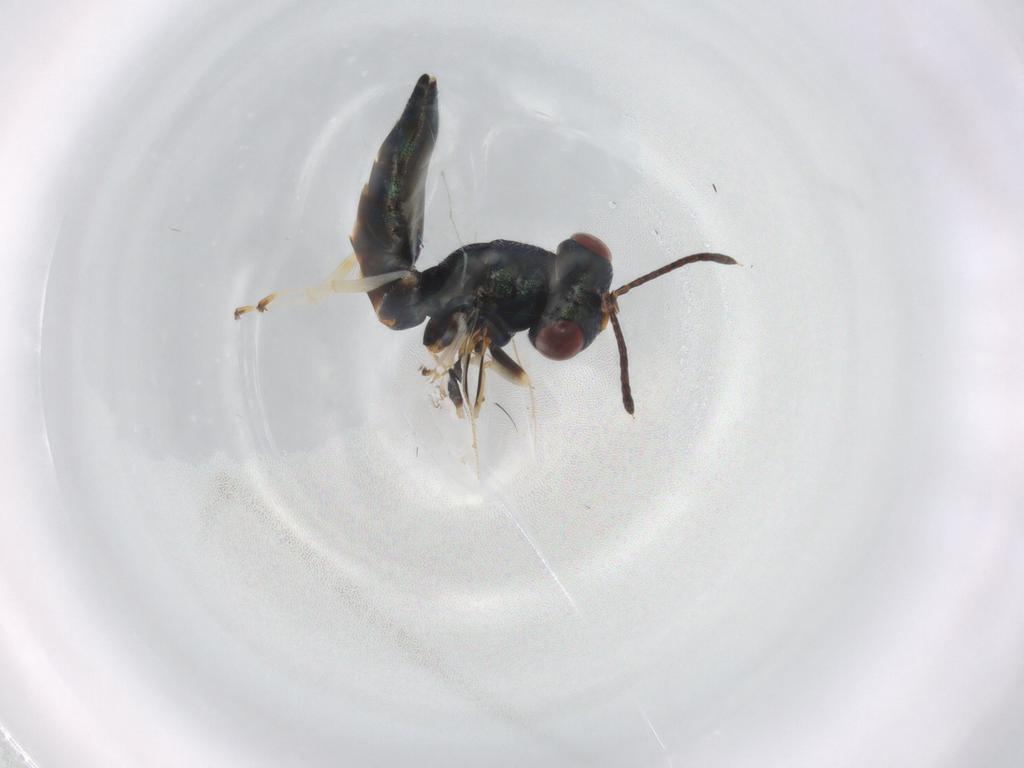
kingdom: Animalia
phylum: Arthropoda
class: Insecta
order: Hymenoptera
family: Pteromalidae
